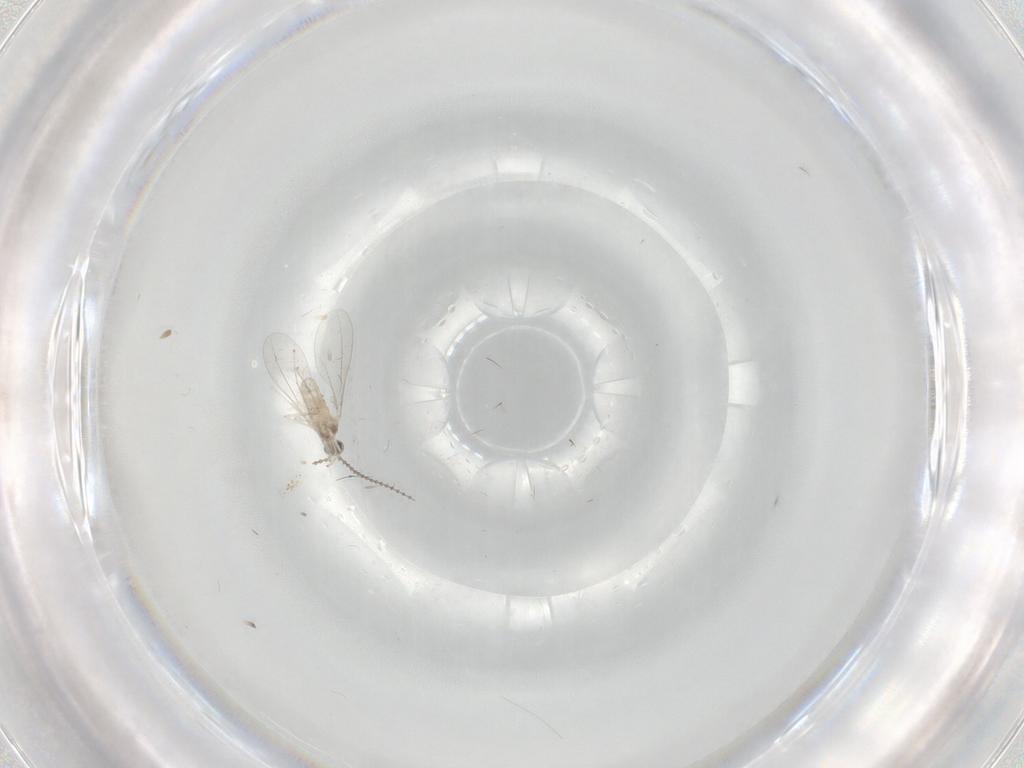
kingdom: Animalia
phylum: Arthropoda
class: Insecta
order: Diptera
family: Cecidomyiidae
